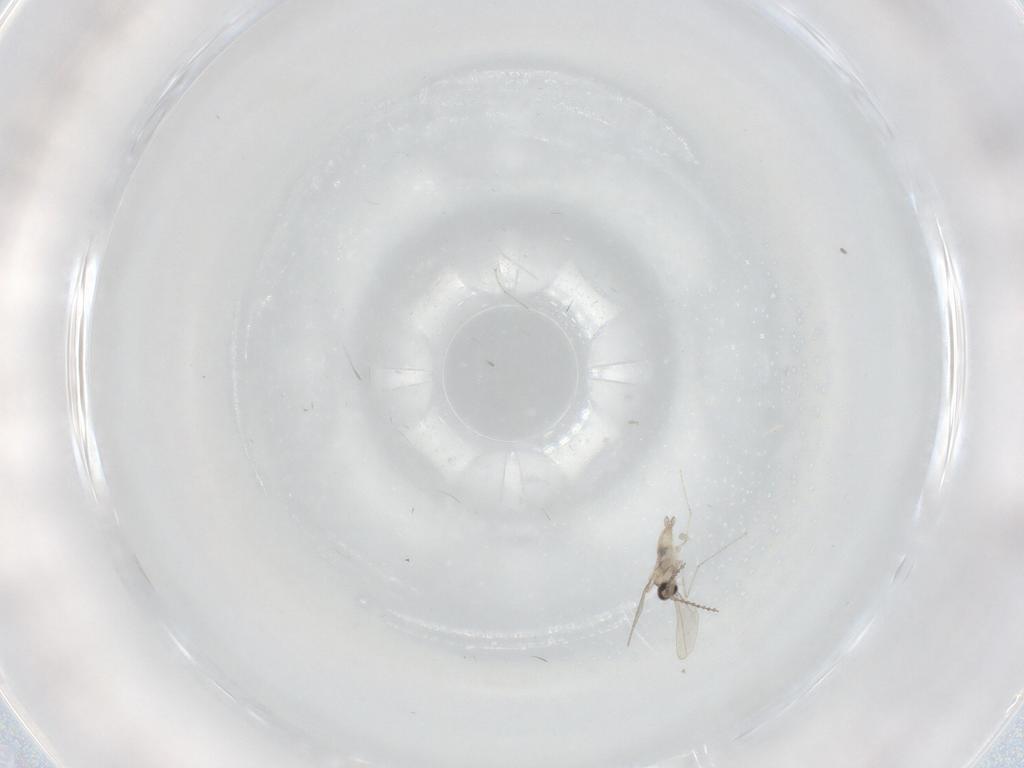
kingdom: Animalia
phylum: Arthropoda
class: Insecta
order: Diptera
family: Cecidomyiidae
